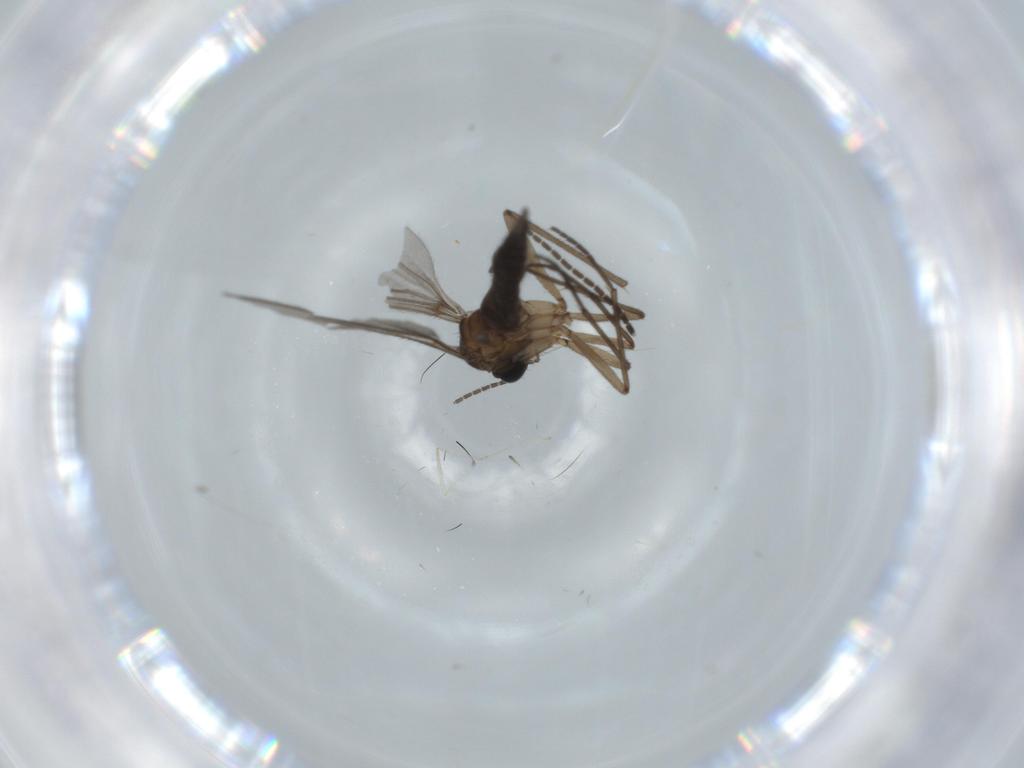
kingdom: Animalia
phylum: Arthropoda
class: Insecta
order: Diptera
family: Sciaridae
